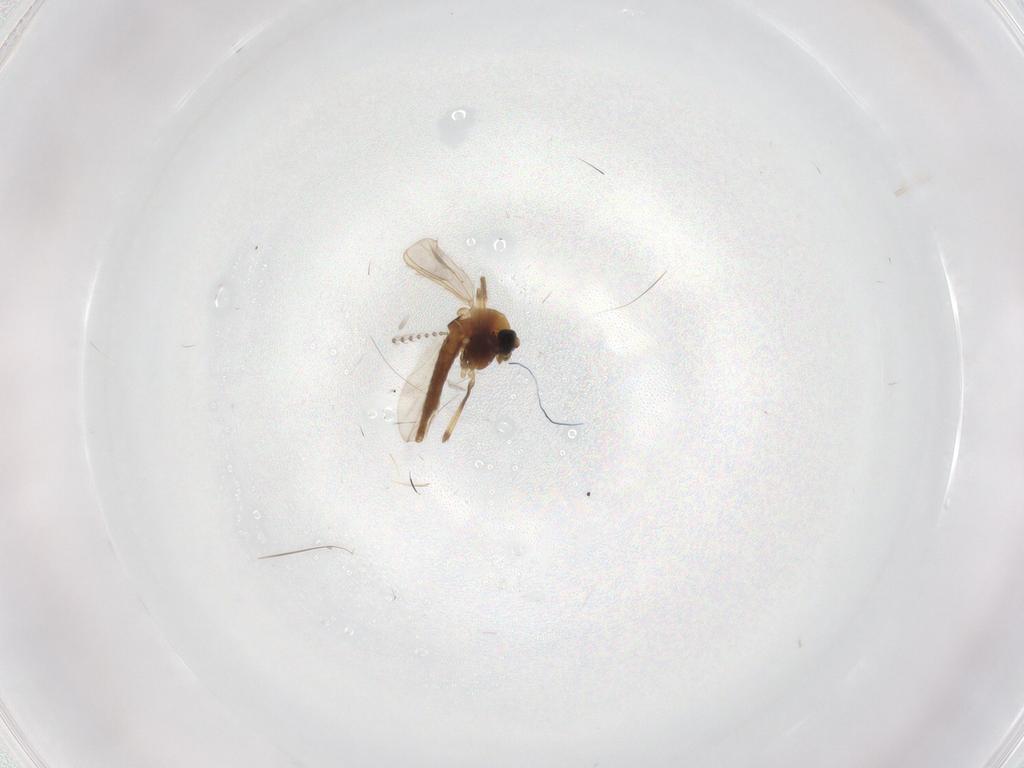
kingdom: Animalia
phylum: Arthropoda
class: Insecta
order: Diptera
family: Chironomidae
